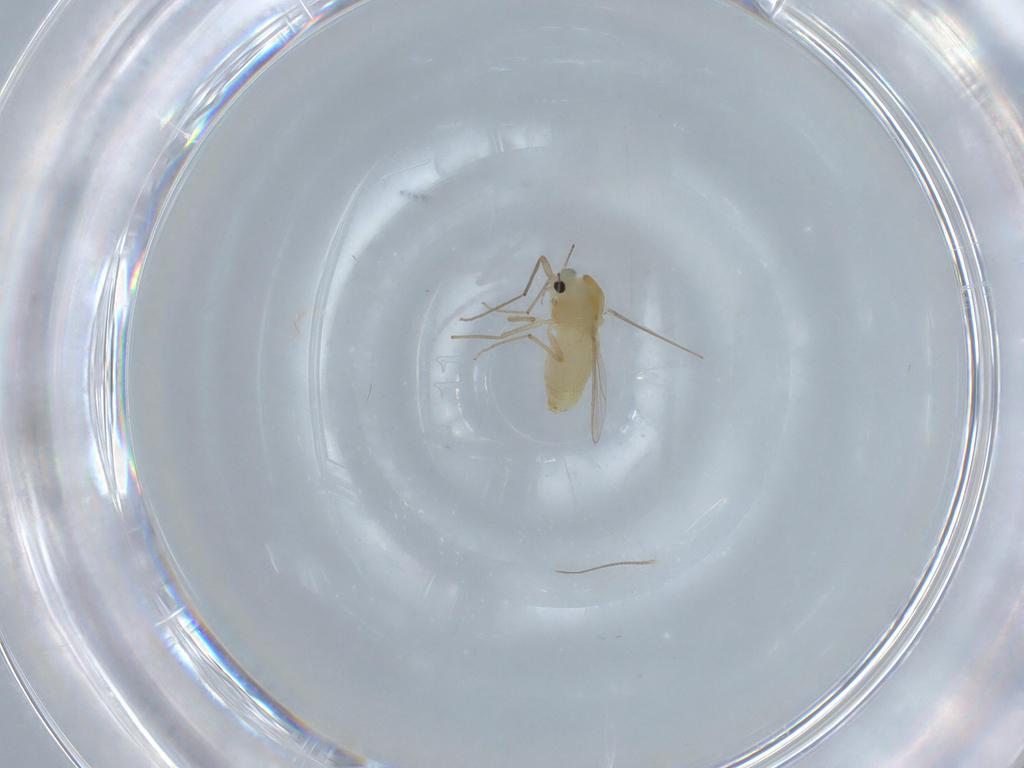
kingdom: Animalia
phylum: Arthropoda
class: Insecta
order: Diptera
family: Chironomidae
